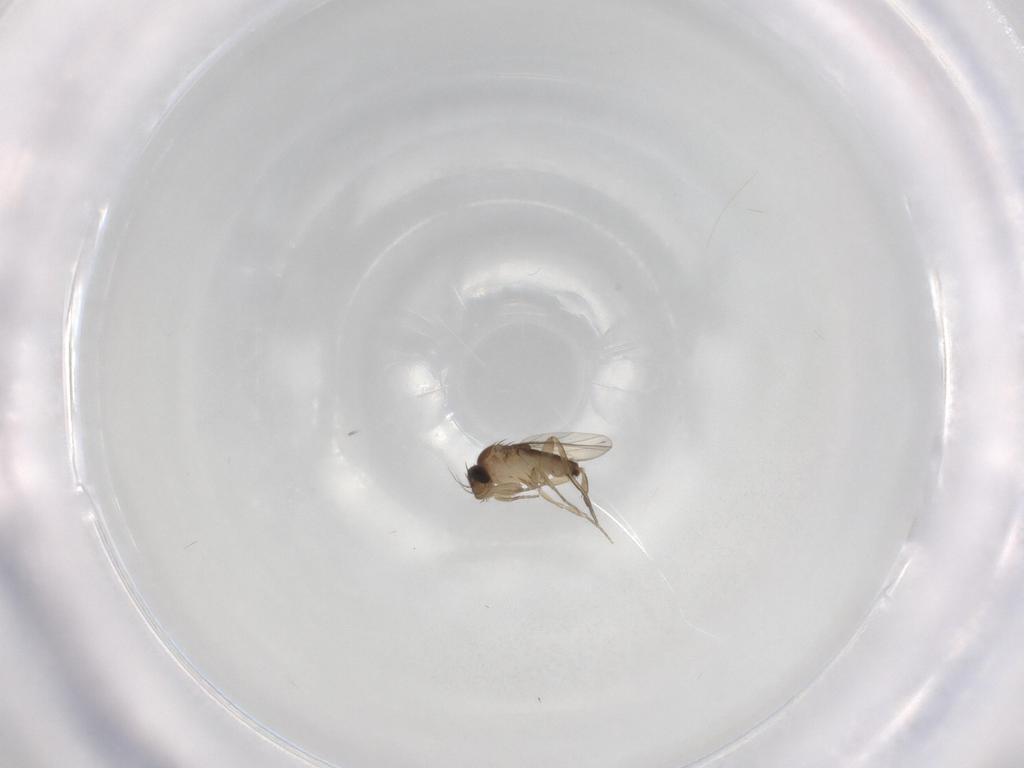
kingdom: Animalia
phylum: Arthropoda
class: Insecta
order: Diptera
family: Phoridae
